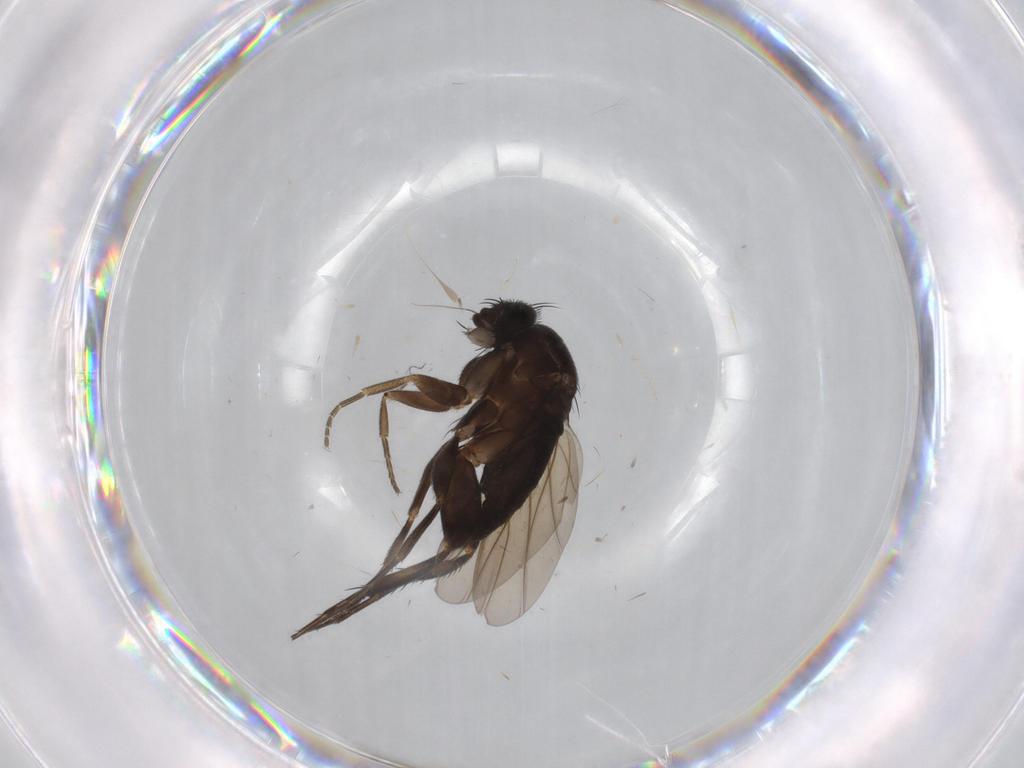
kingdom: Animalia
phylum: Arthropoda
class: Insecta
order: Diptera
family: Phoridae
